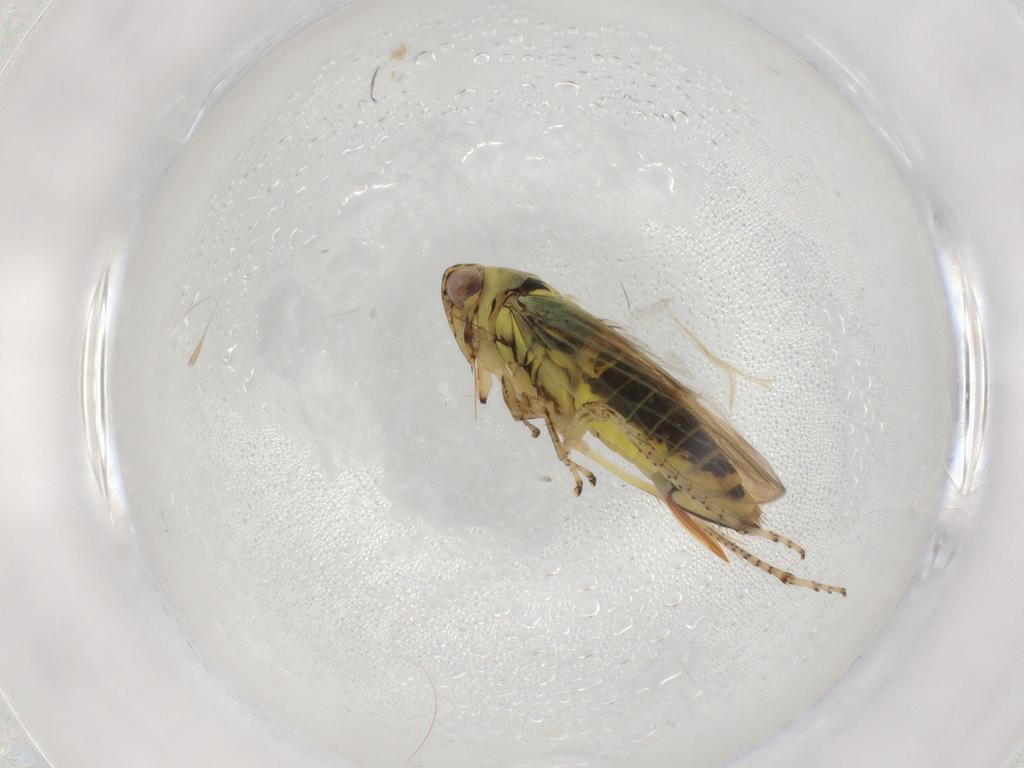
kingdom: Animalia
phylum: Arthropoda
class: Insecta
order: Hemiptera
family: Cicadellidae
